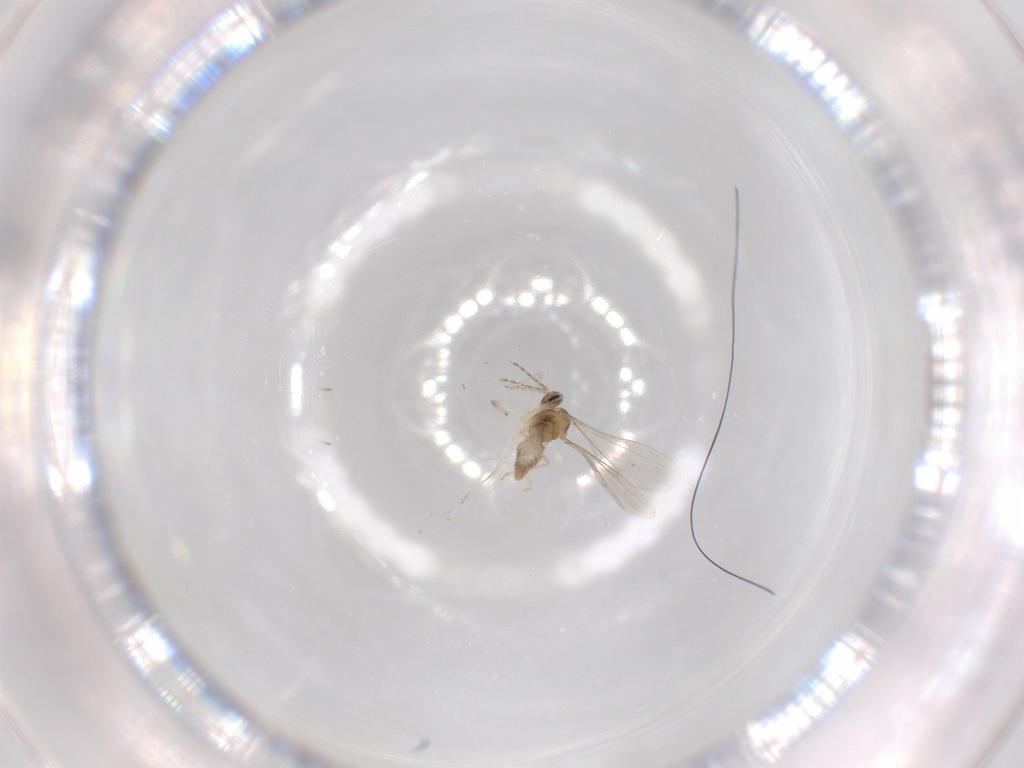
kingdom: Animalia
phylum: Arthropoda
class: Insecta
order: Diptera
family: Cecidomyiidae
